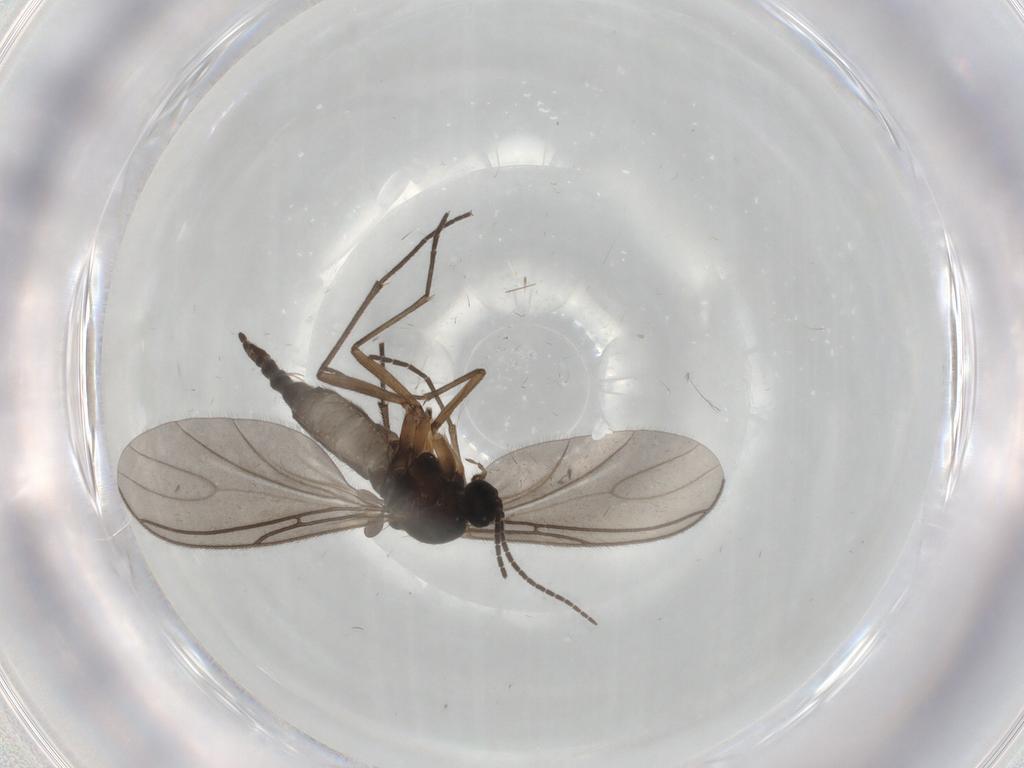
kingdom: Animalia
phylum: Arthropoda
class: Insecta
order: Diptera
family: Sciaridae
